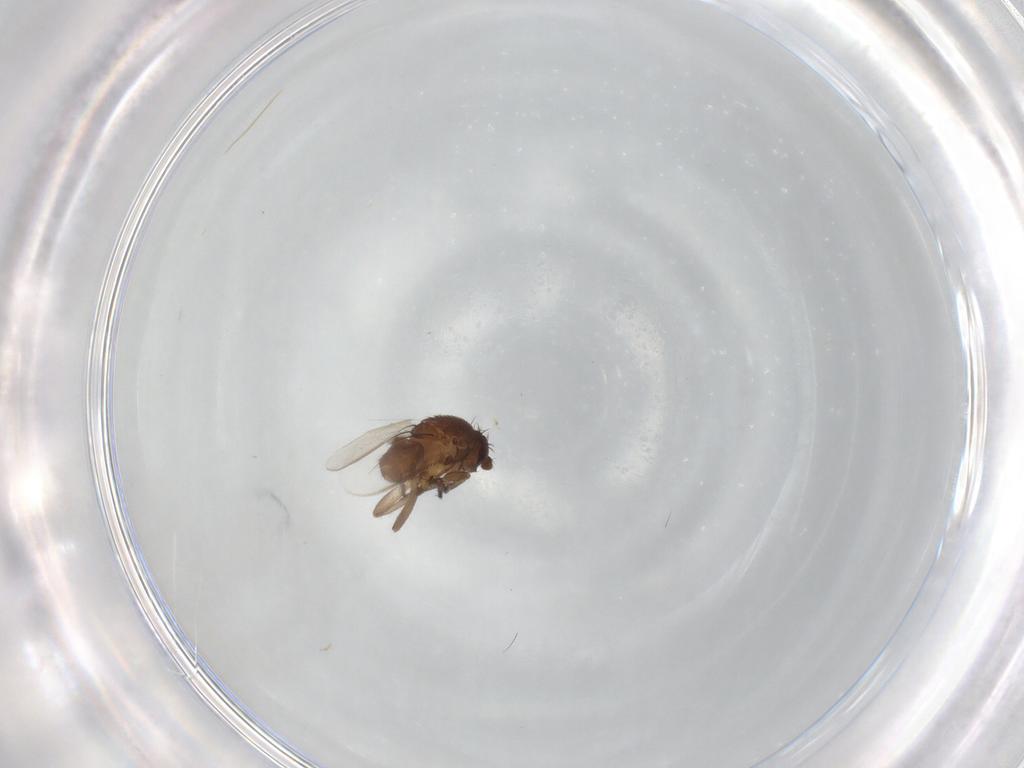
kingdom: Animalia
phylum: Arthropoda
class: Insecta
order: Diptera
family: Sphaeroceridae
